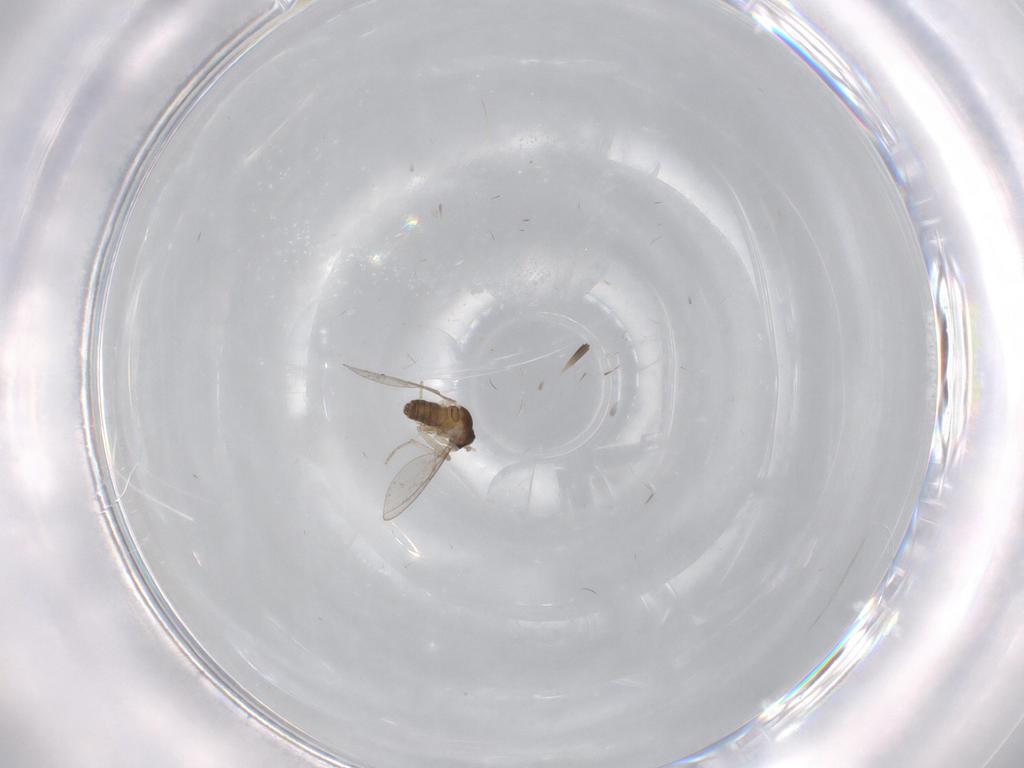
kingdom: Animalia
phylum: Arthropoda
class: Insecta
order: Diptera
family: Cecidomyiidae
